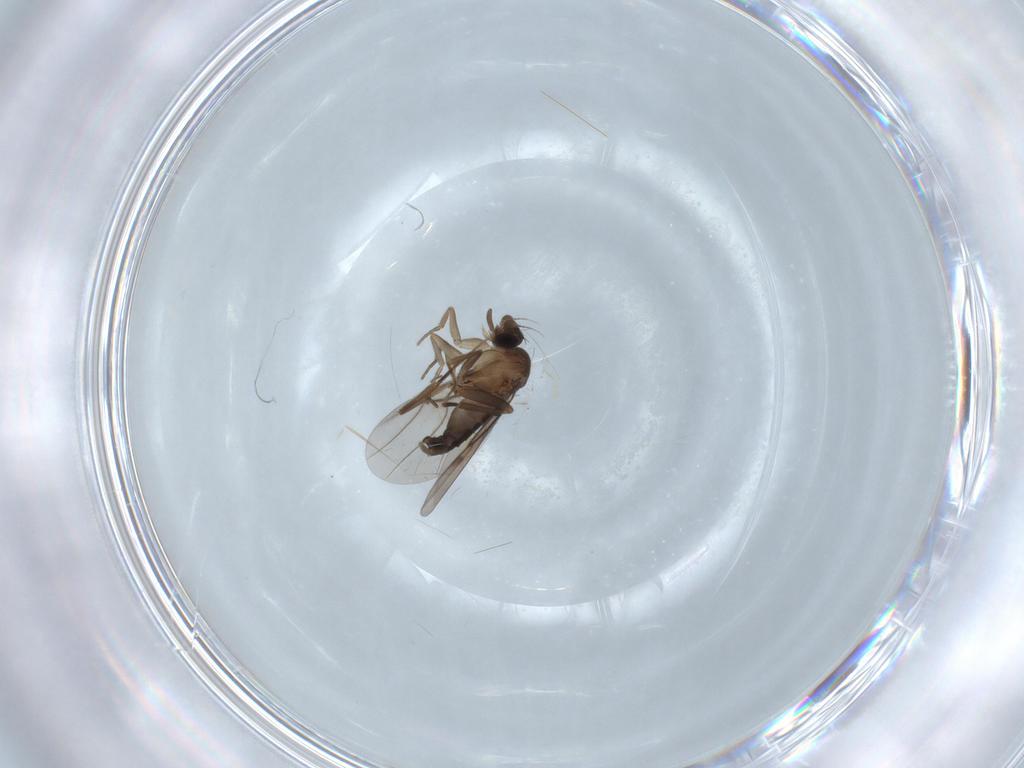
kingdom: Animalia
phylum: Arthropoda
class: Insecta
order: Diptera
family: Phoridae
